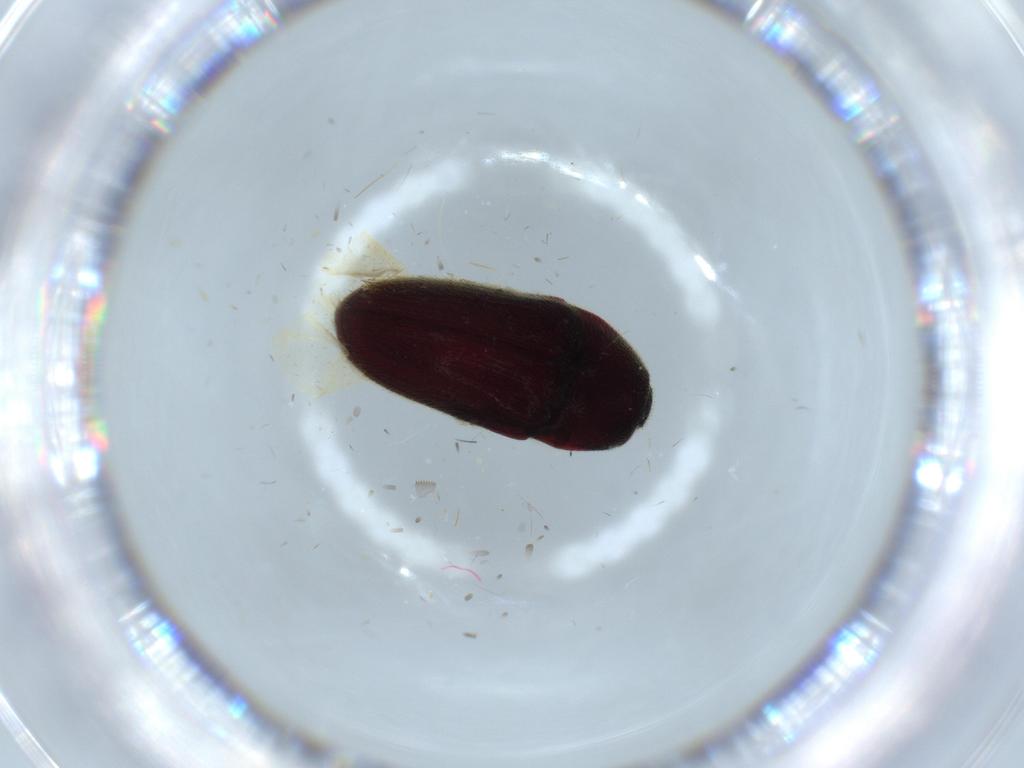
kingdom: Animalia
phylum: Arthropoda
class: Insecta
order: Coleoptera
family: Throscidae
